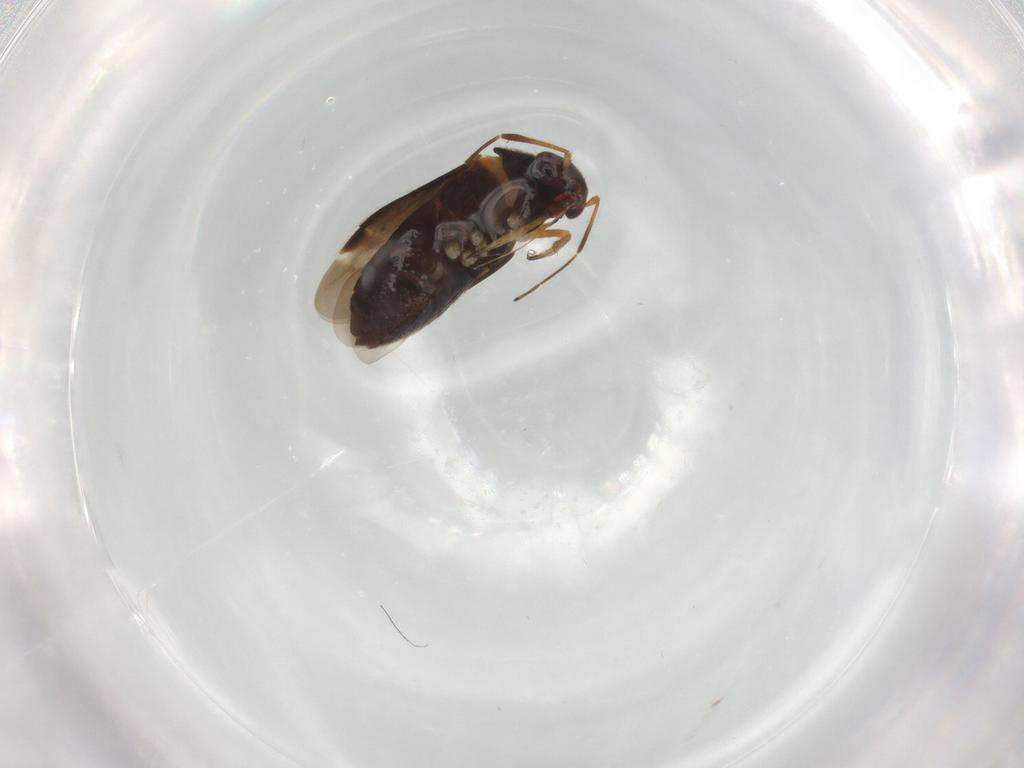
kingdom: Animalia
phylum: Arthropoda
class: Insecta
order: Hemiptera
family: Miridae
